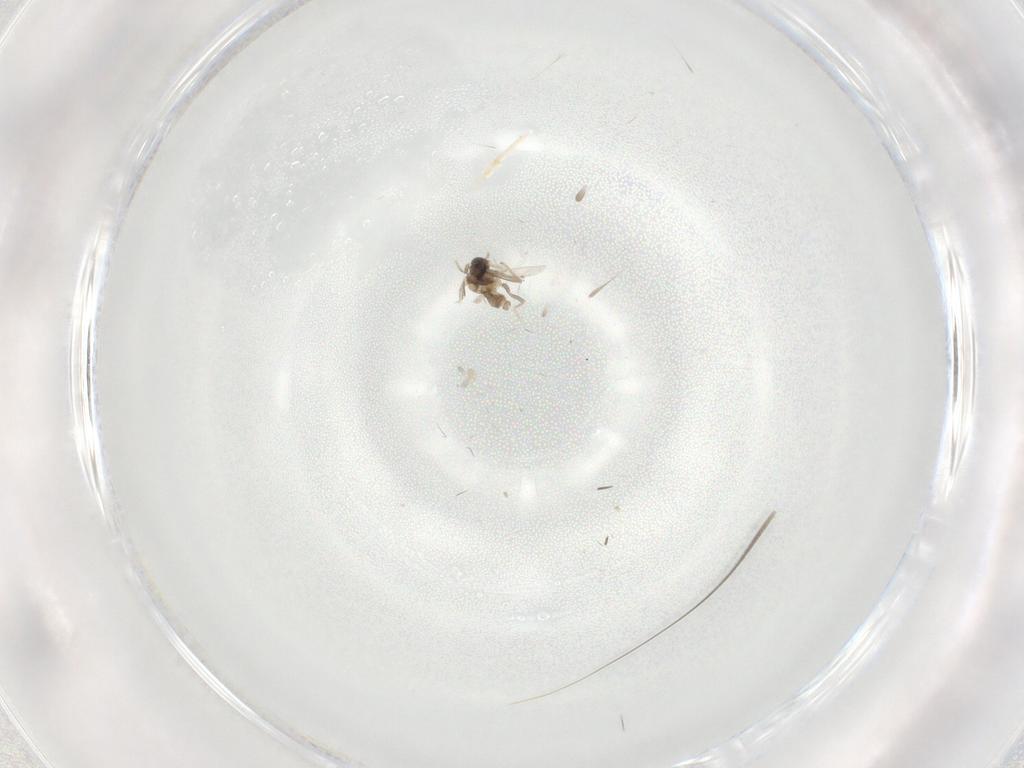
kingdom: Animalia
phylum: Arthropoda
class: Insecta
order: Diptera
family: Cecidomyiidae
